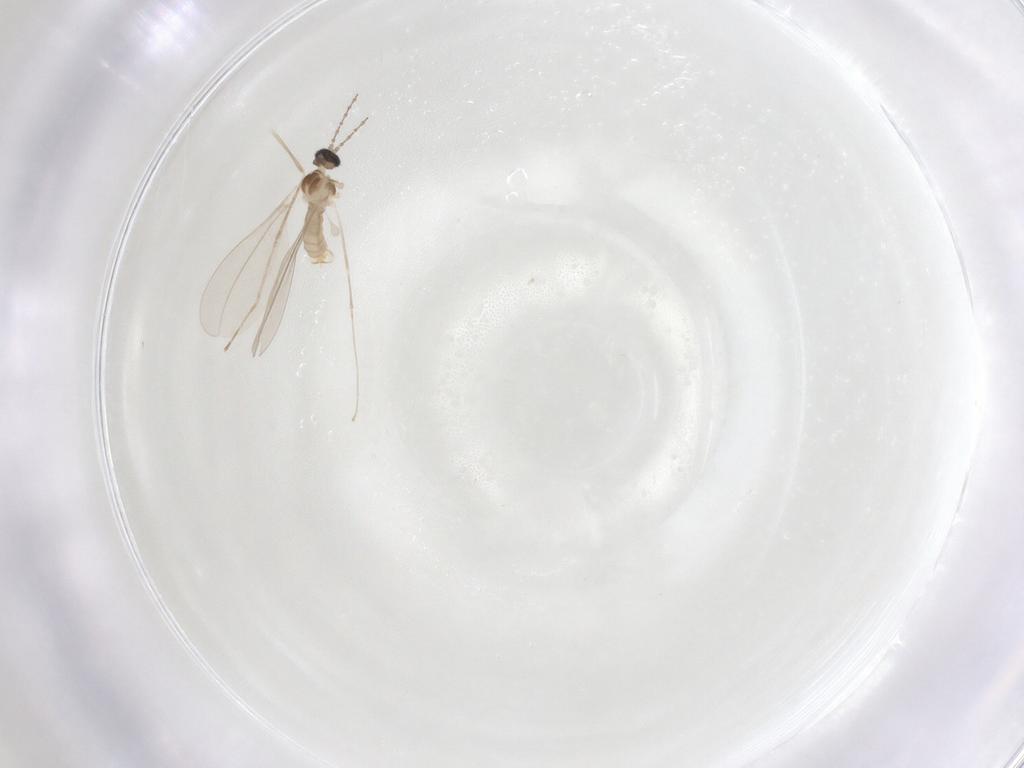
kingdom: Animalia
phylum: Arthropoda
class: Insecta
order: Diptera
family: Cecidomyiidae
